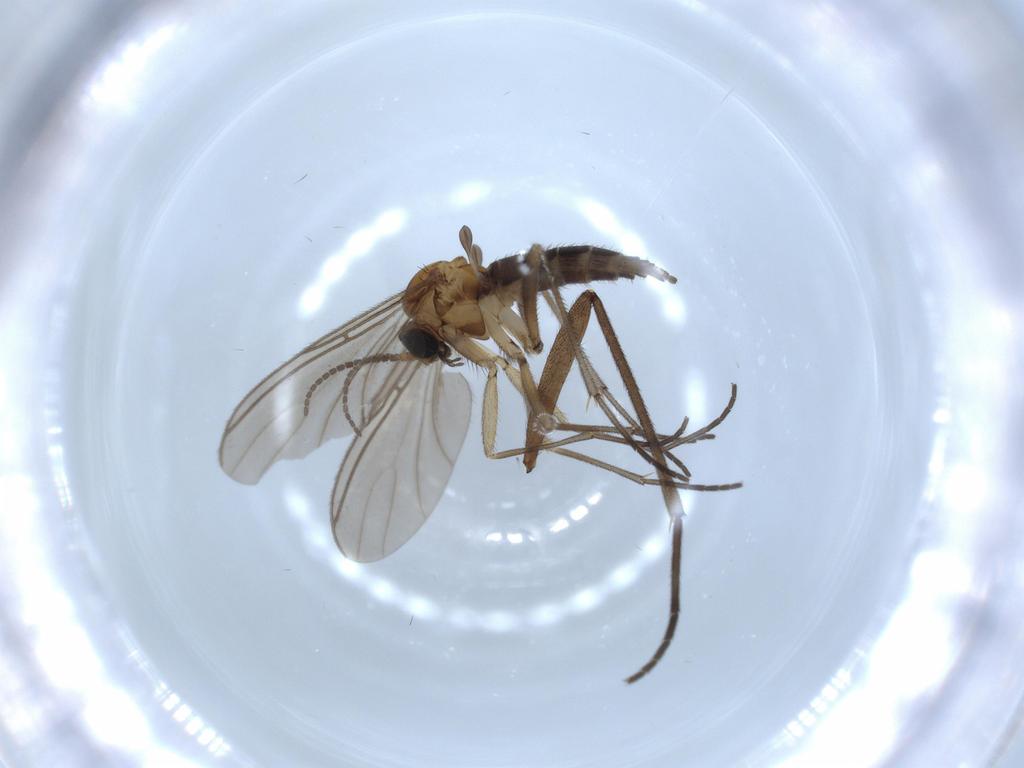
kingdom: Animalia
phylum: Arthropoda
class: Insecta
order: Diptera
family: Sciaridae
